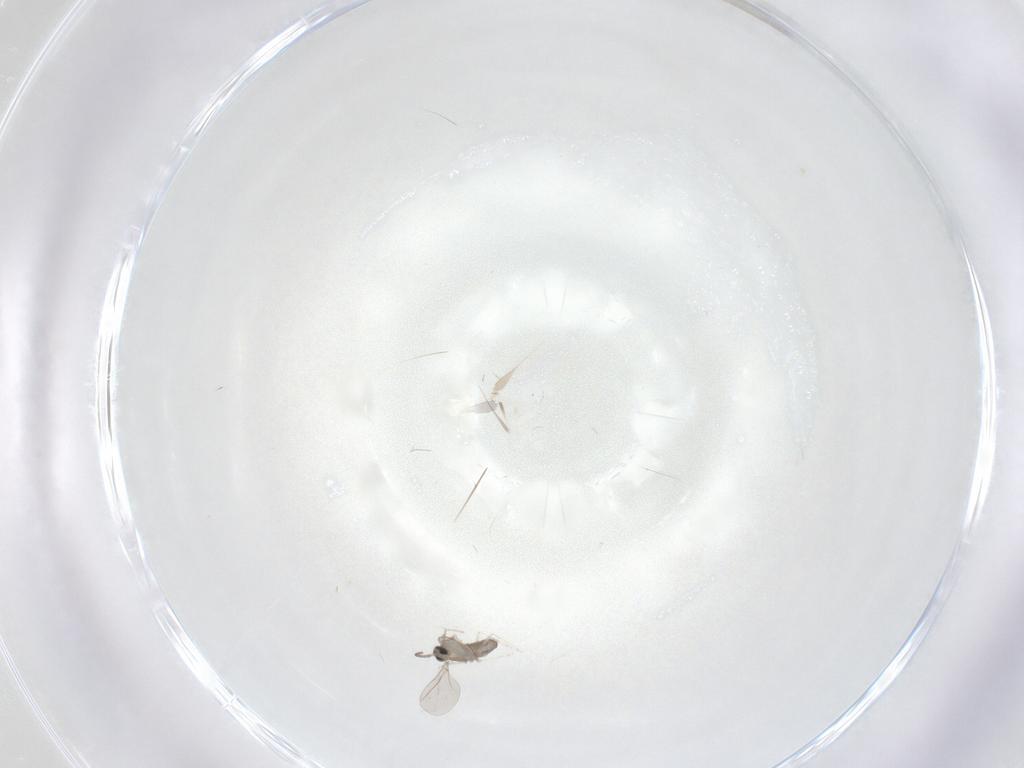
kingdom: Animalia
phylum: Arthropoda
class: Insecta
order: Diptera
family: Cecidomyiidae
